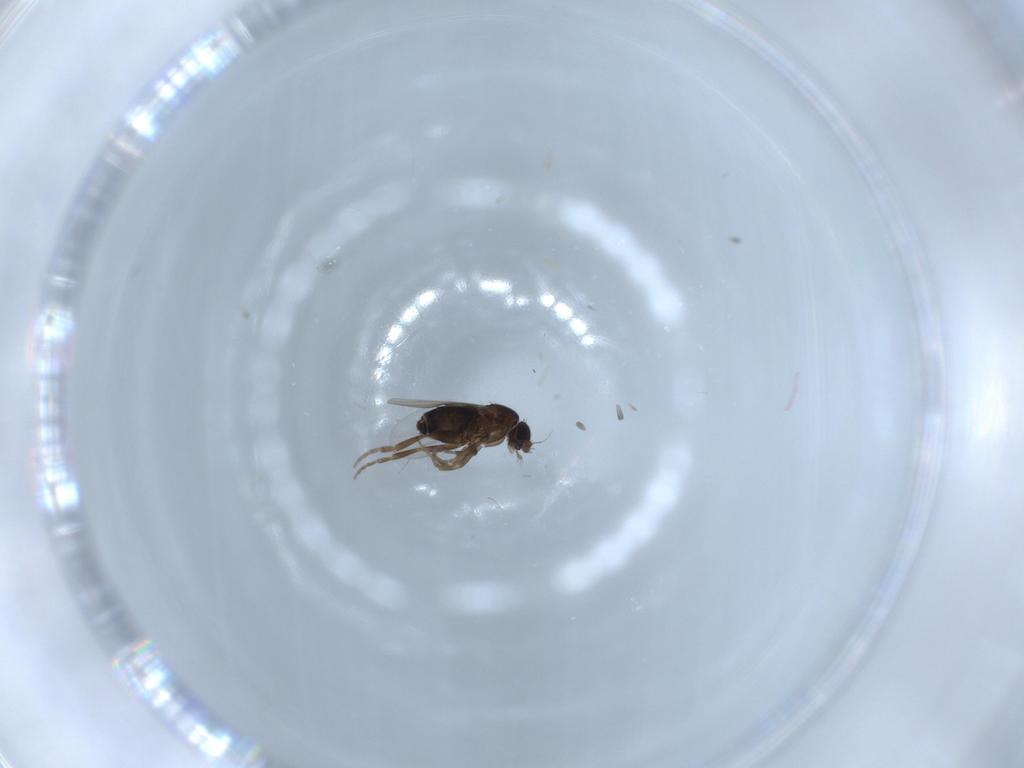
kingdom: Animalia
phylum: Arthropoda
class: Insecta
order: Diptera
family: Phoridae
